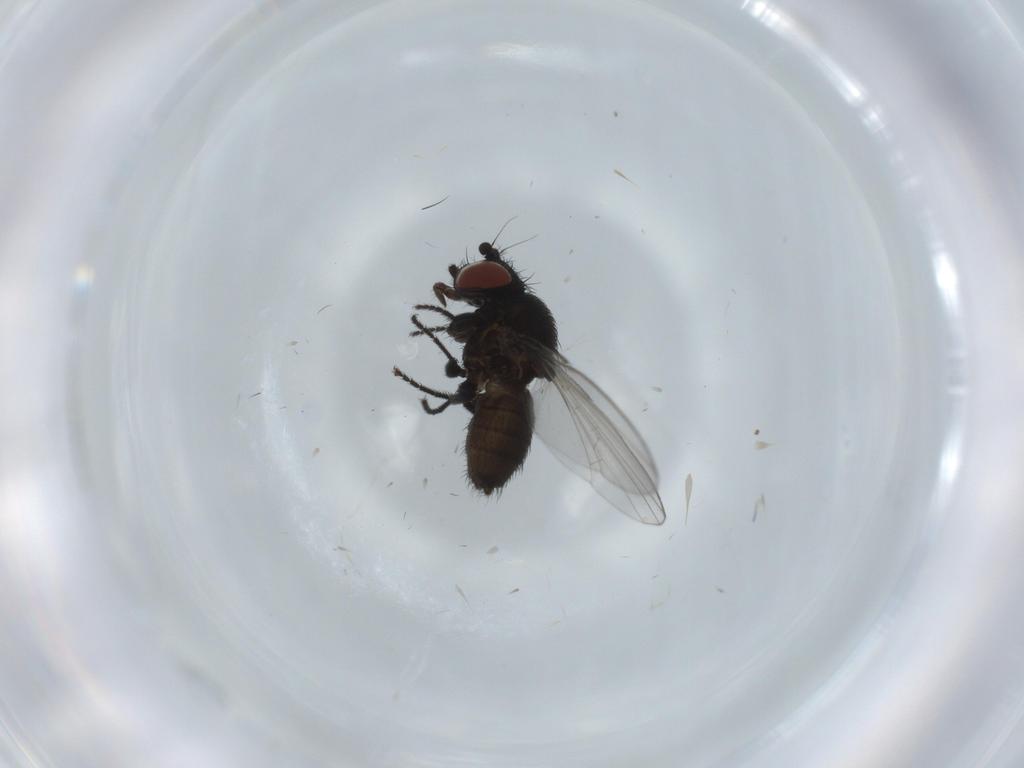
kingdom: Animalia
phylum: Arthropoda
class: Insecta
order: Diptera
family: Milichiidae
